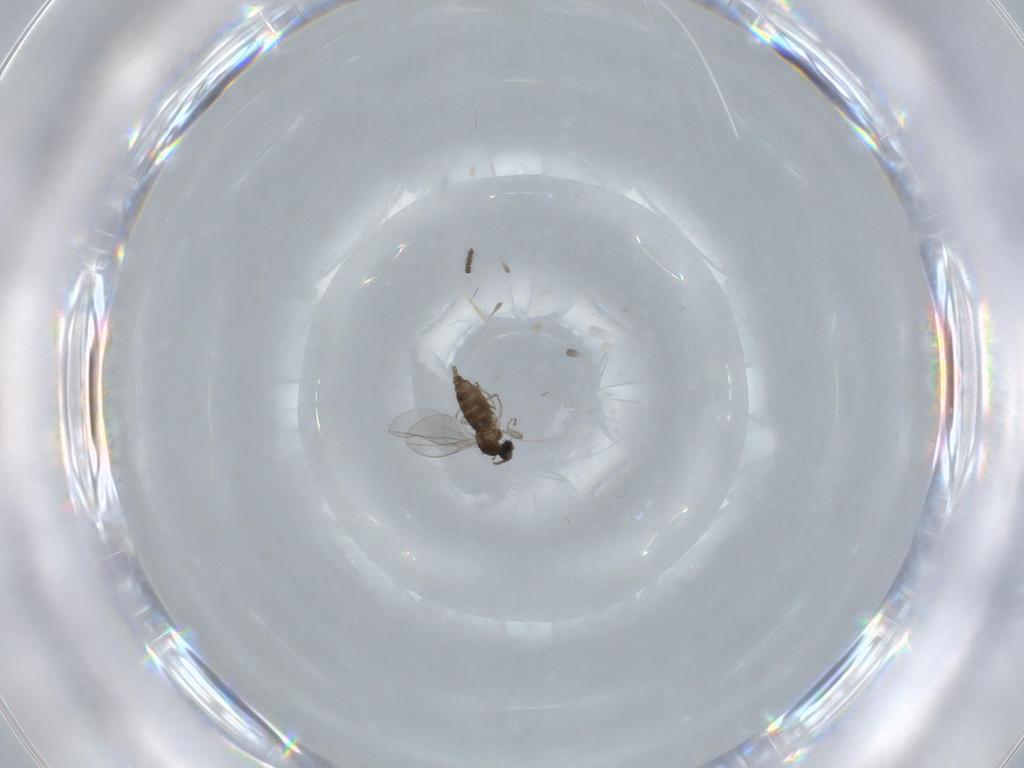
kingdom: Animalia
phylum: Arthropoda
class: Insecta
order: Diptera
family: Cecidomyiidae
